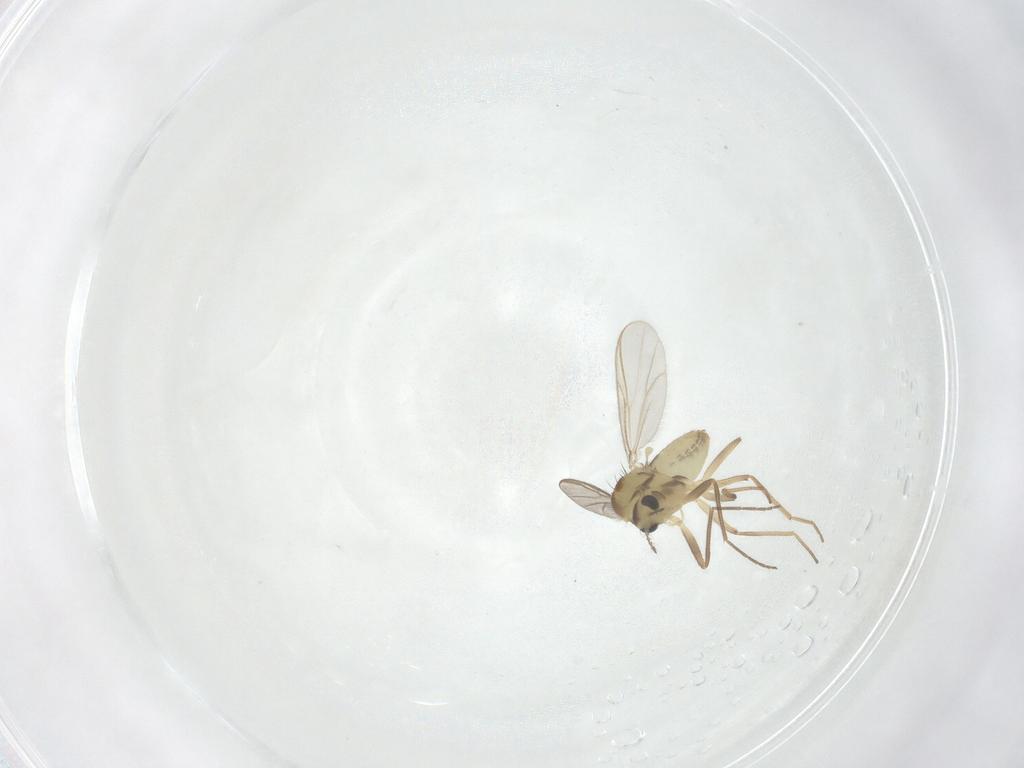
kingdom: Animalia
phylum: Arthropoda
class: Insecta
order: Diptera
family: Chironomidae
